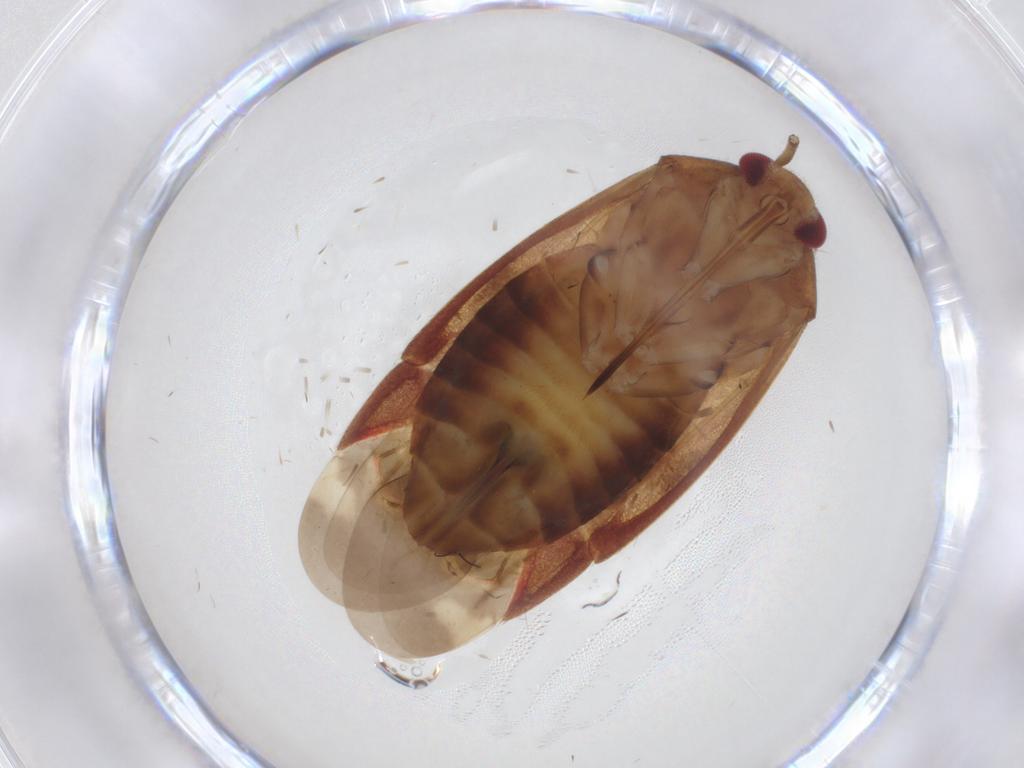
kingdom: Animalia
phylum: Arthropoda
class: Insecta
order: Hemiptera
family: Miridae
